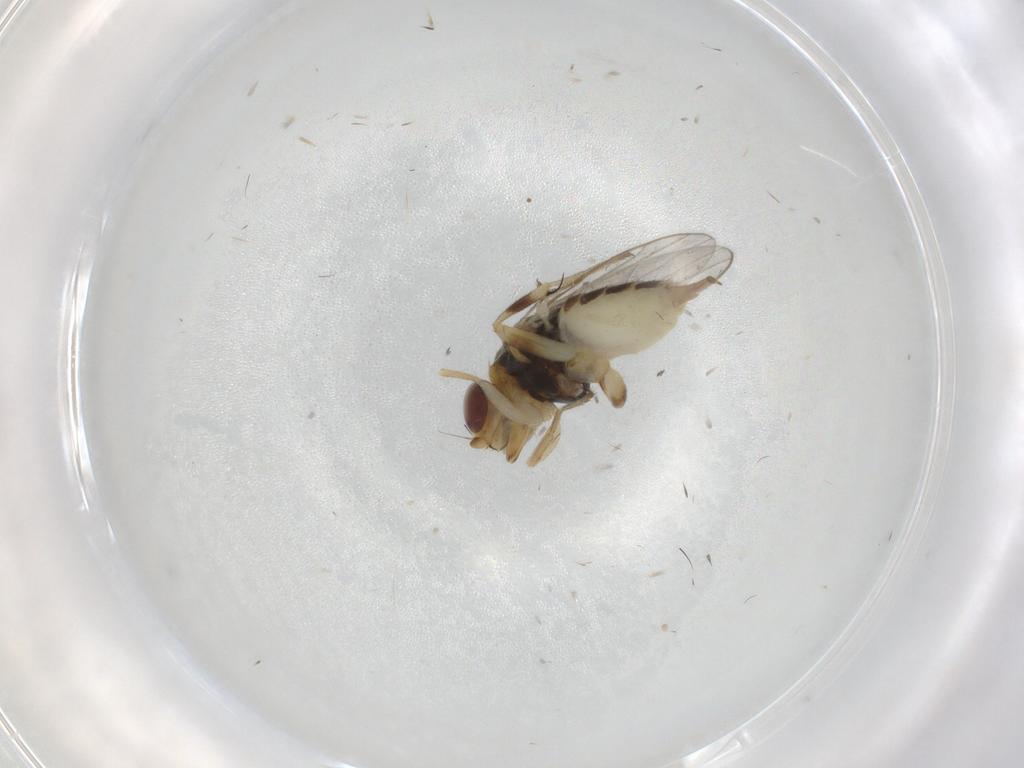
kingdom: Animalia
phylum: Arthropoda
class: Insecta
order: Diptera
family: Chloropidae
